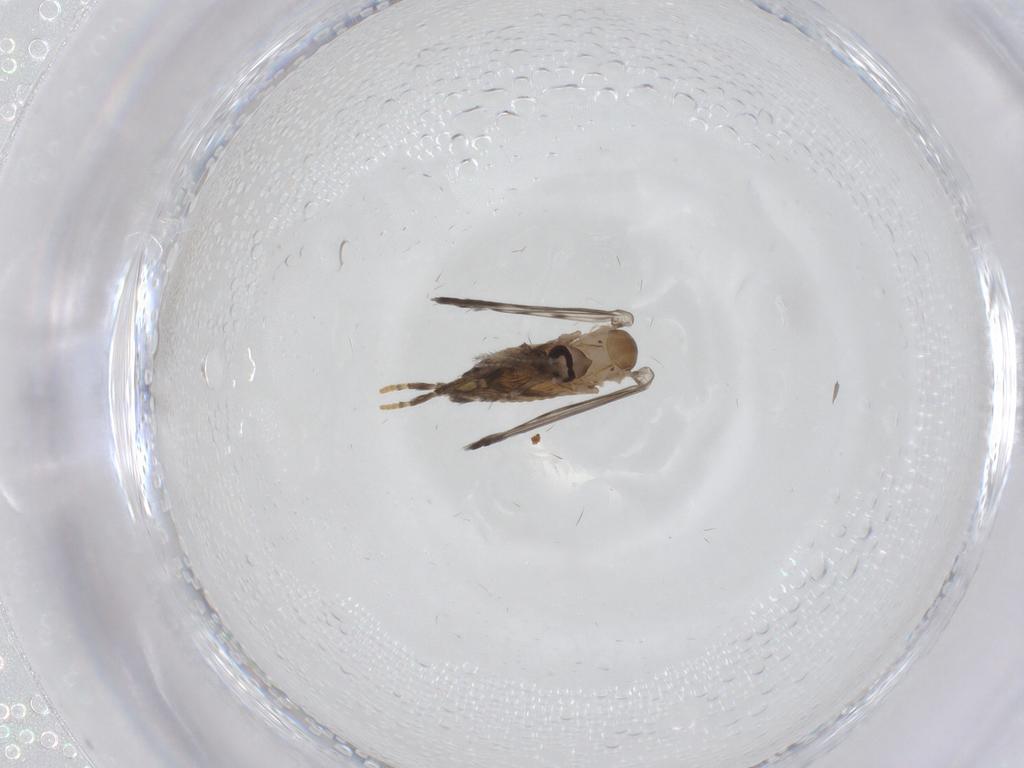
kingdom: Animalia
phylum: Arthropoda
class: Insecta
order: Diptera
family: Psychodidae
